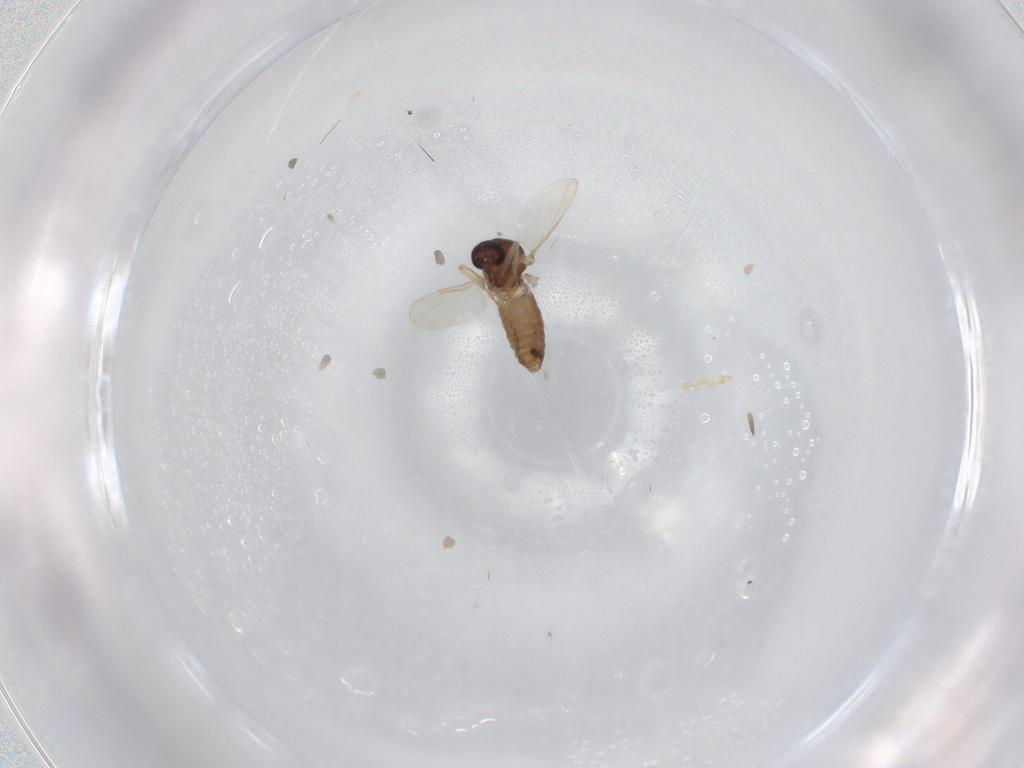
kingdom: Animalia
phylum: Arthropoda
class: Insecta
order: Diptera
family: Ceratopogonidae
